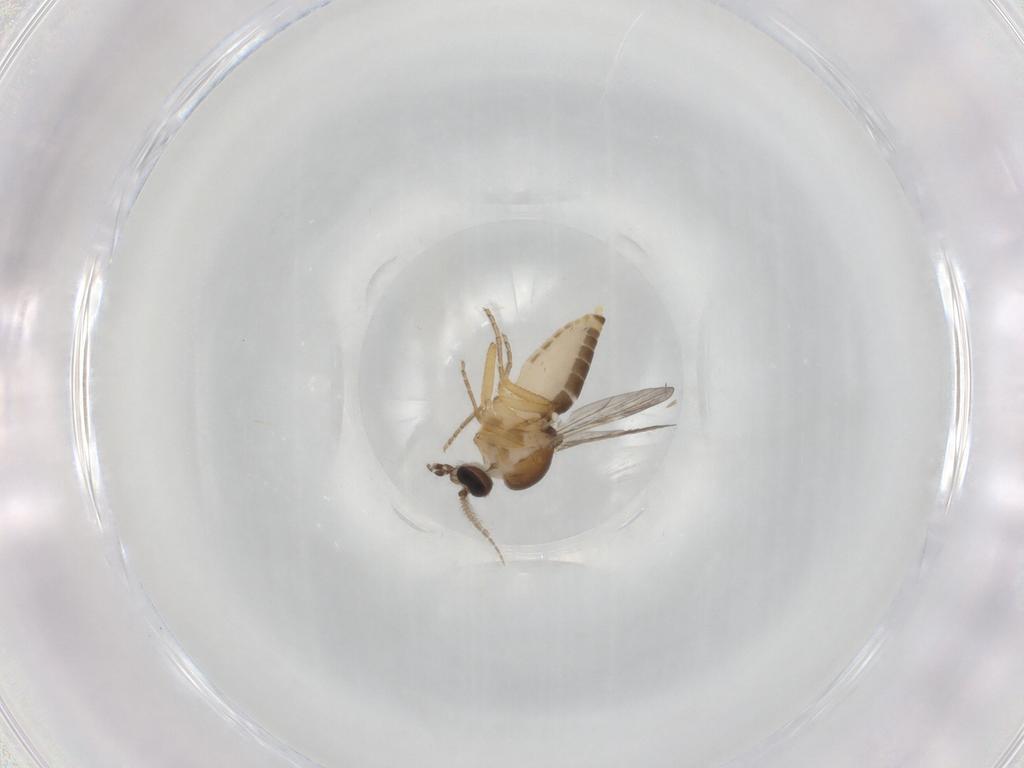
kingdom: Animalia
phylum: Arthropoda
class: Insecta
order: Diptera
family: Ceratopogonidae
